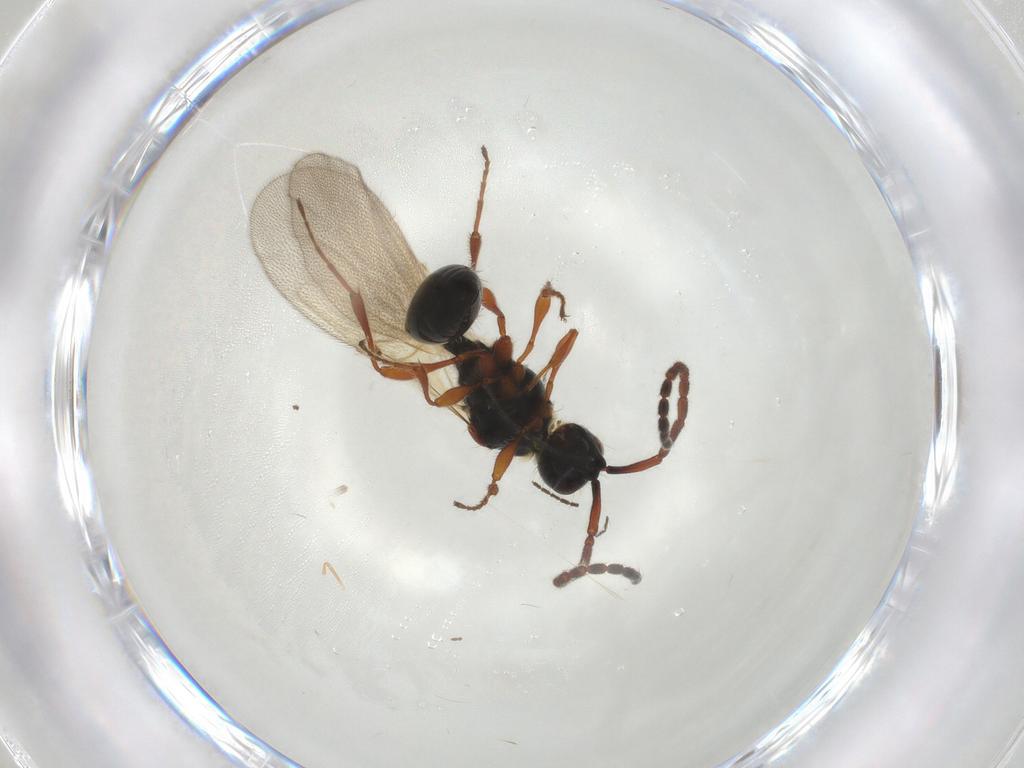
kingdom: Animalia
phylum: Arthropoda
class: Insecta
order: Hymenoptera
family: Diapriidae
